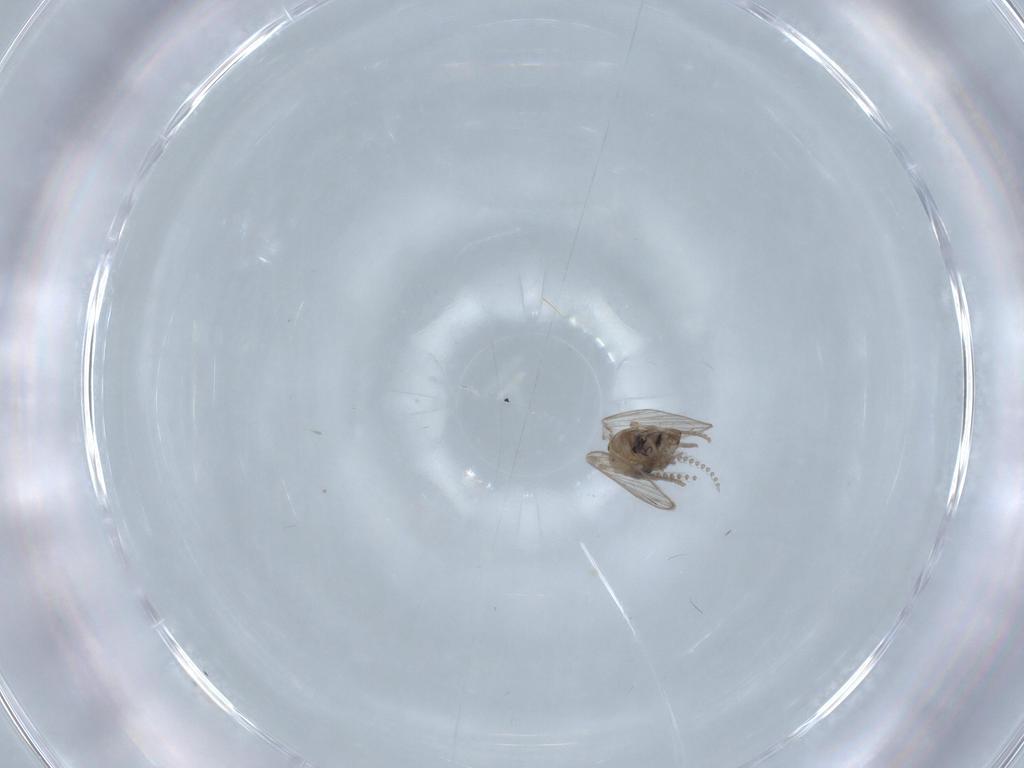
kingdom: Animalia
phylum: Arthropoda
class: Insecta
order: Diptera
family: Psychodidae
